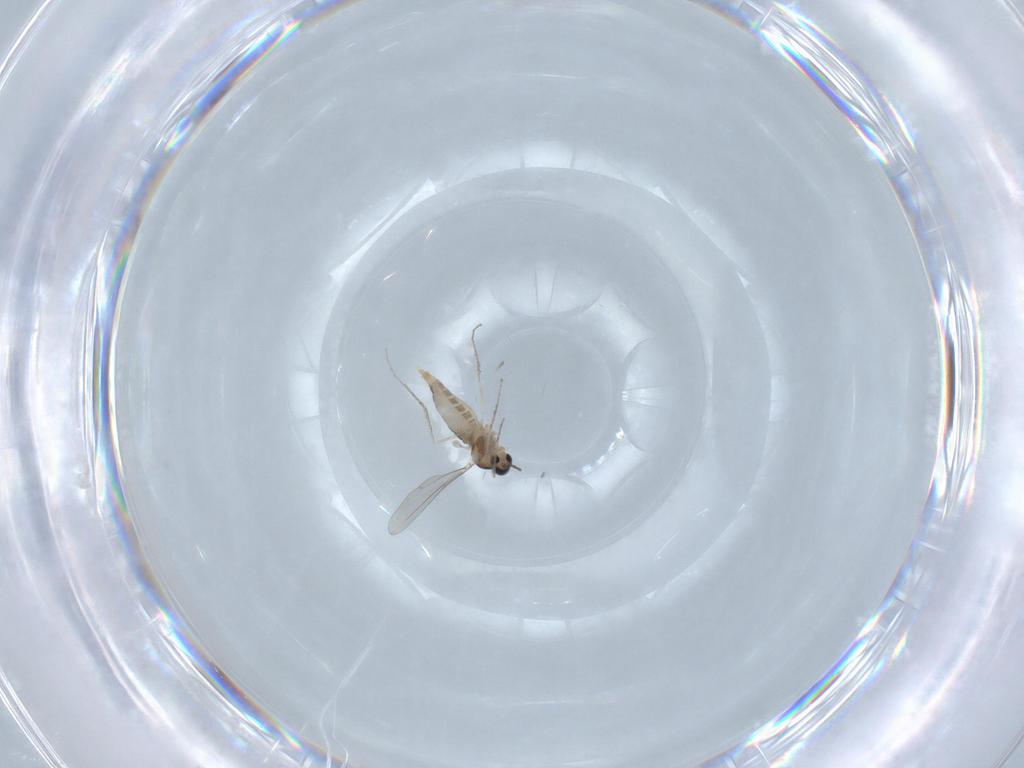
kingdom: Animalia
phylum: Arthropoda
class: Insecta
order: Diptera
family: Cecidomyiidae
